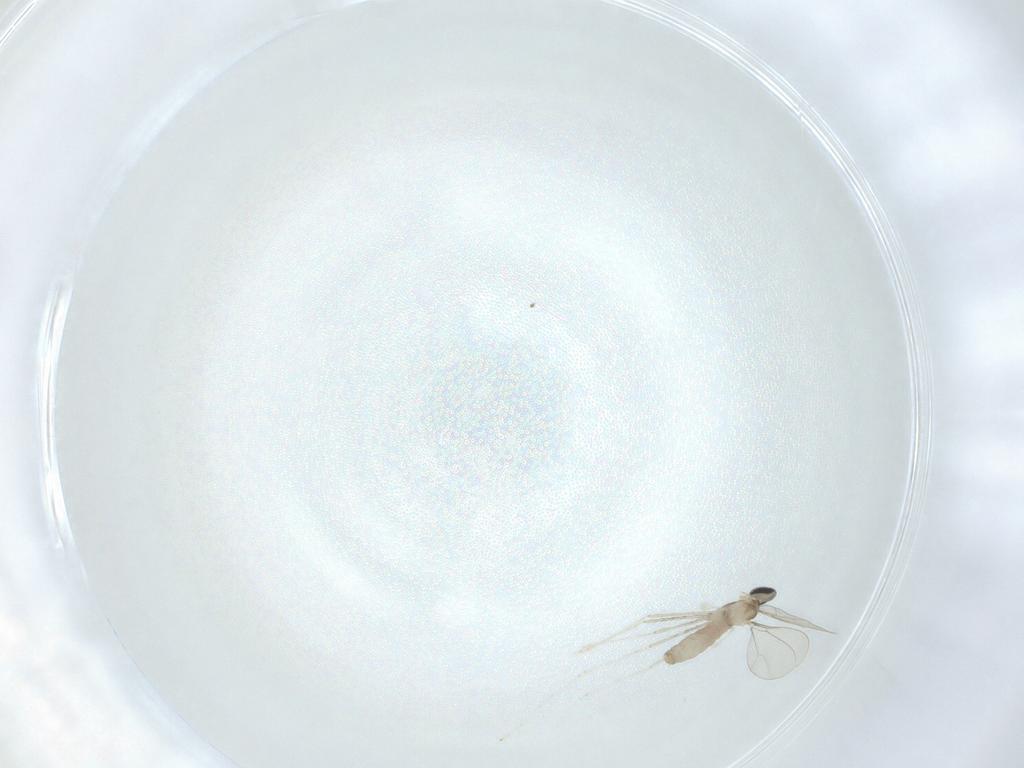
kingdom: Animalia
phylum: Arthropoda
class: Insecta
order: Diptera
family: Cecidomyiidae
